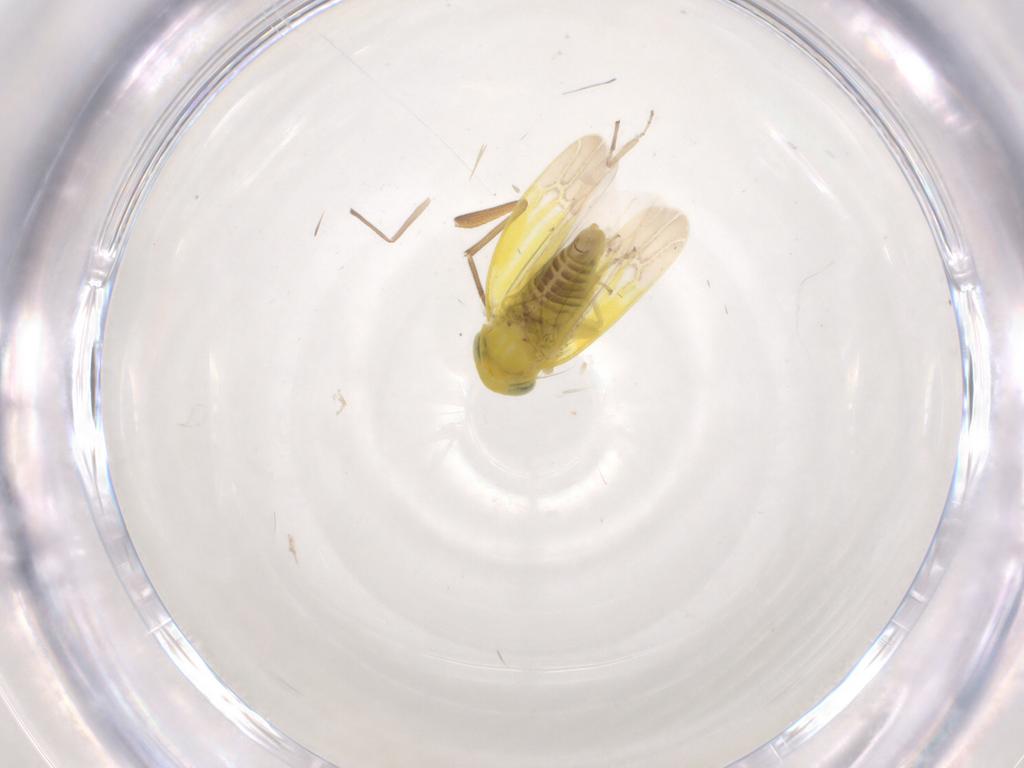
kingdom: Animalia
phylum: Arthropoda
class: Insecta
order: Hemiptera
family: Cicadellidae
